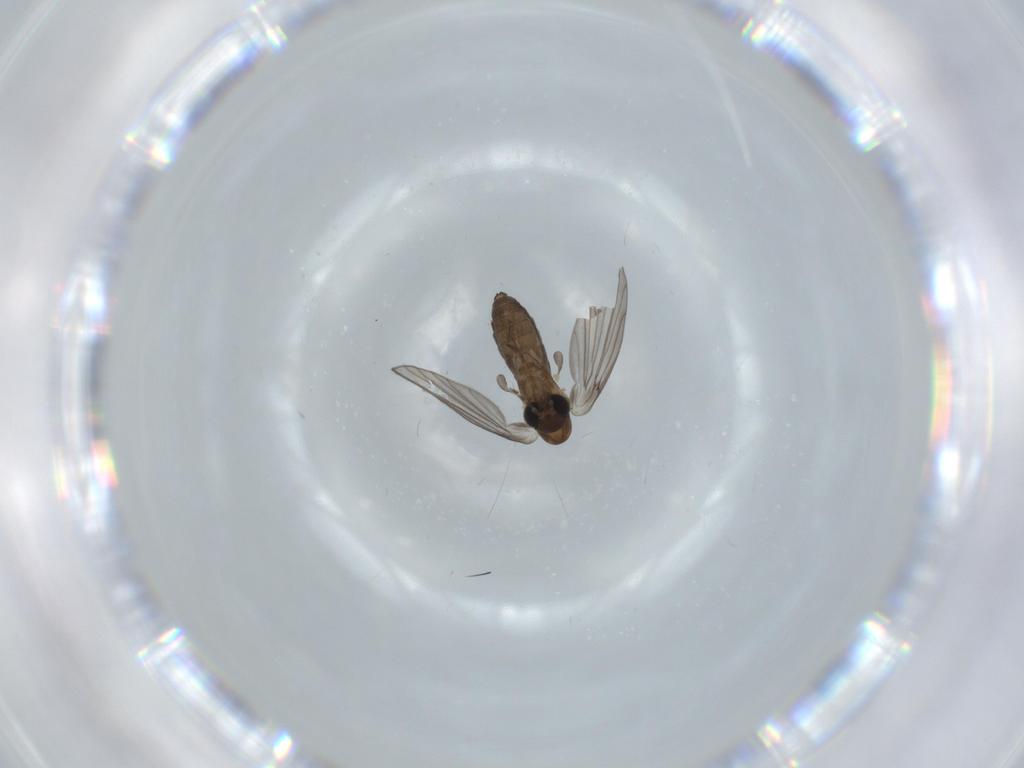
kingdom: Animalia
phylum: Arthropoda
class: Insecta
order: Diptera
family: Psychodidae
